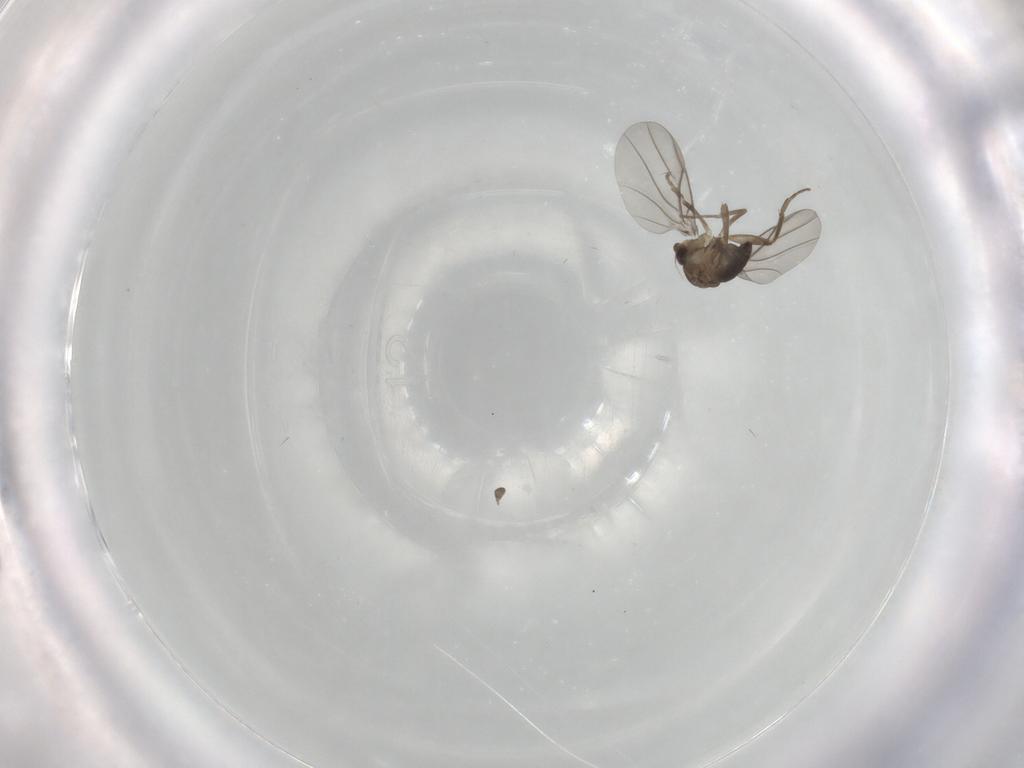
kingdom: Animalia
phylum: Arthropoda
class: Insecta
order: Diptera
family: Phoridae
